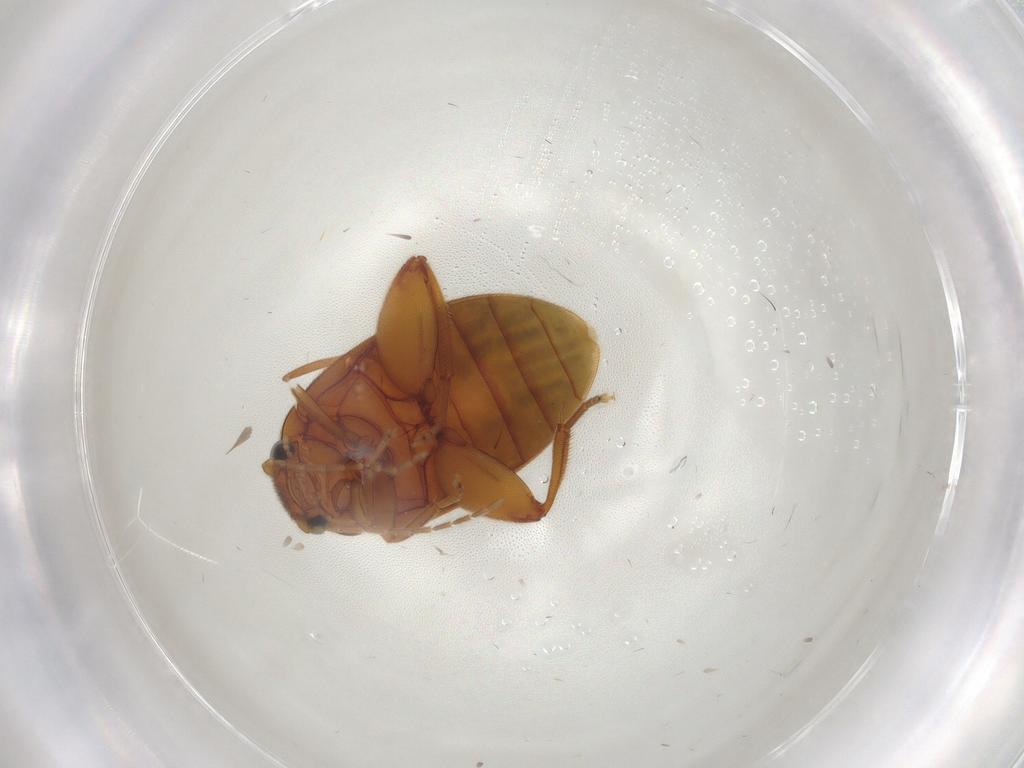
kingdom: Animalia
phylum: Arthropoda
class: Insecta
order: Coleoptera
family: Scirtidae
